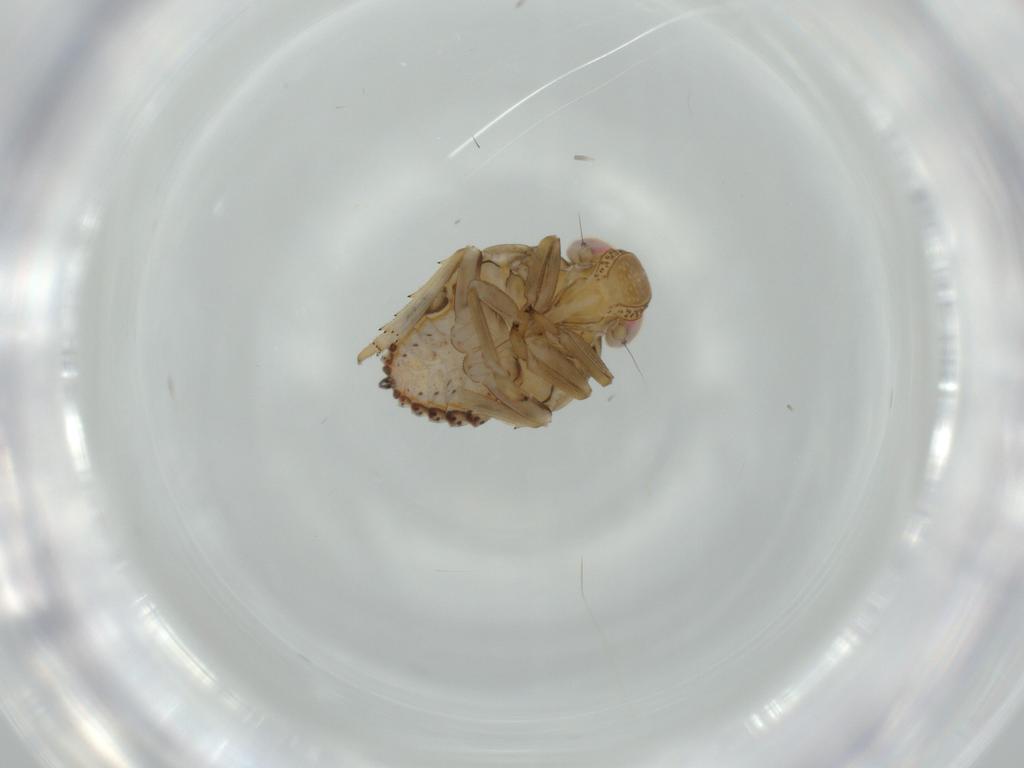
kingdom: Animalia
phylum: Arthropoda
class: Insecta
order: Hemiptera
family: Issidae
